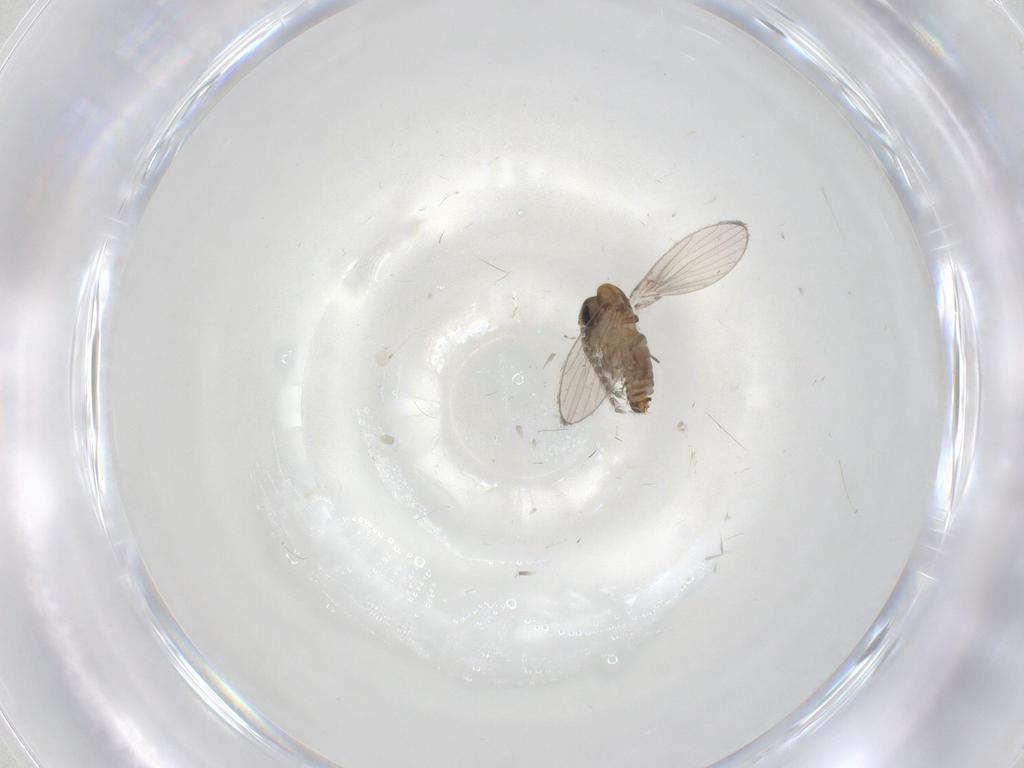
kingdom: Animalia
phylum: Arthropoda
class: Insecta
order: Diptera
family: Psychodidae
